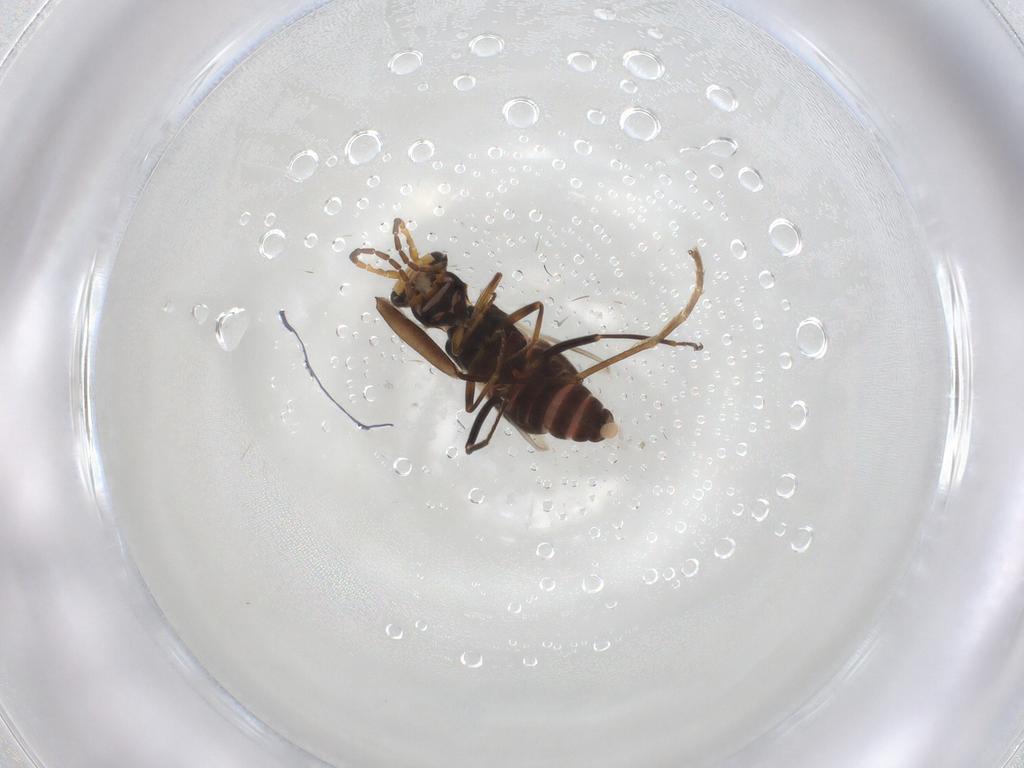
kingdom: Animalia
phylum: Arthropoda
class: Insecta
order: Coleoptera
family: Melyridae
